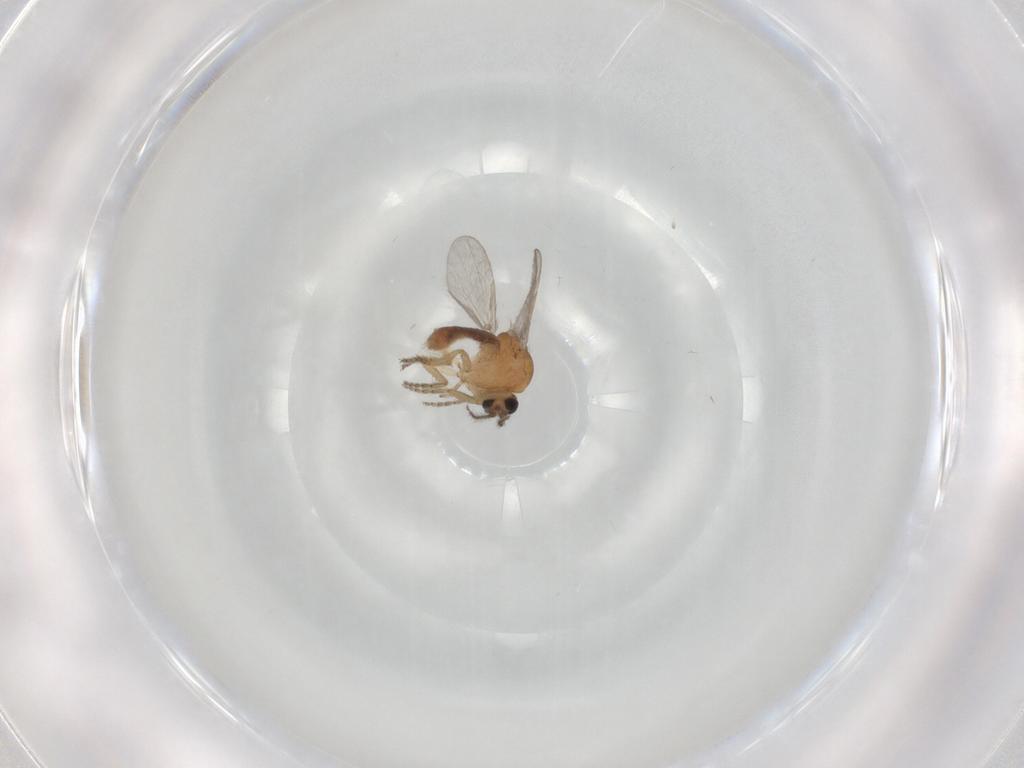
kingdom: Animalia
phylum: Arthropoda
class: Insecta
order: Diptera
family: Ceratopogonidae
